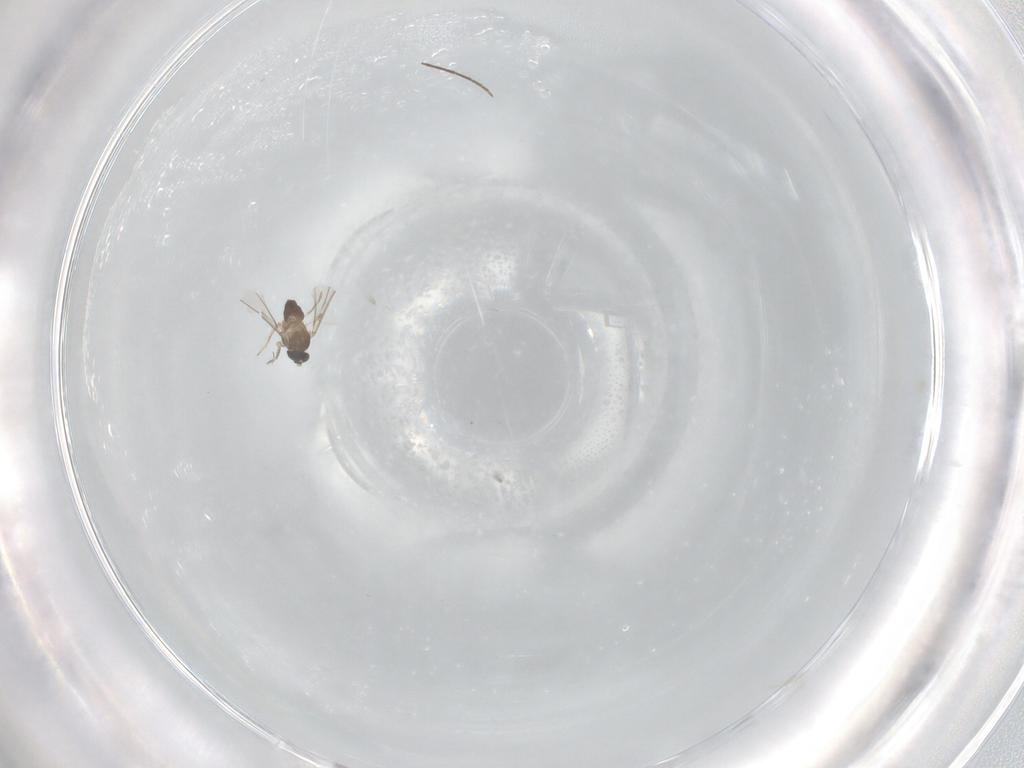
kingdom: Animalia
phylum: Arthropoda
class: Insecta
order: Diptera
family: Cecidomyiidae
